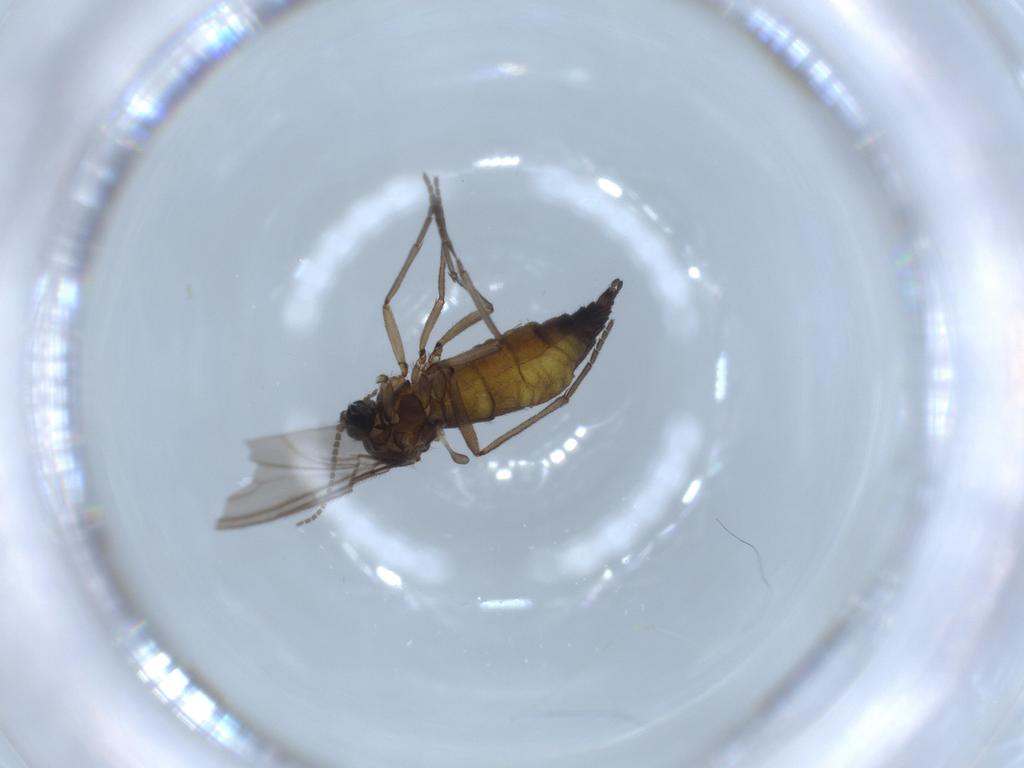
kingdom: Animalia
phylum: Arthropoda
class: Insecta
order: Diptera
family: Sciaridae
